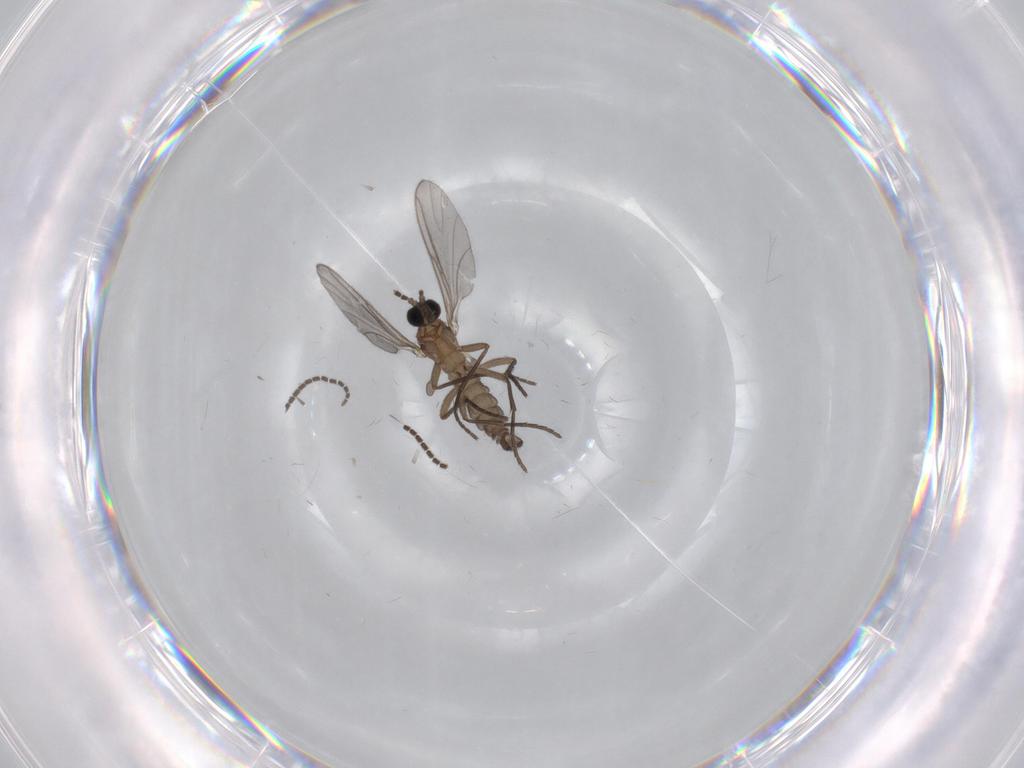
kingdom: Animalia
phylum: Arthropoda
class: Insecta
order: Diptera
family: Sciaridae
